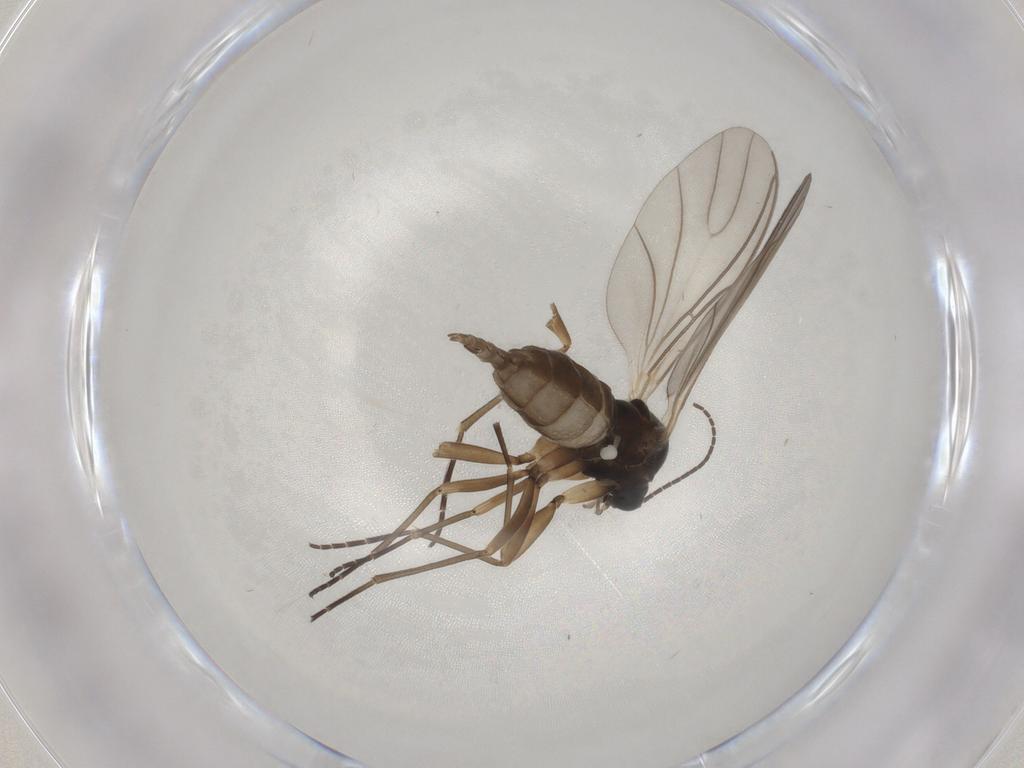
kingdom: Animalia
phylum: Arthropoda
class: Insecta
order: Diptera
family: Sciaridae
